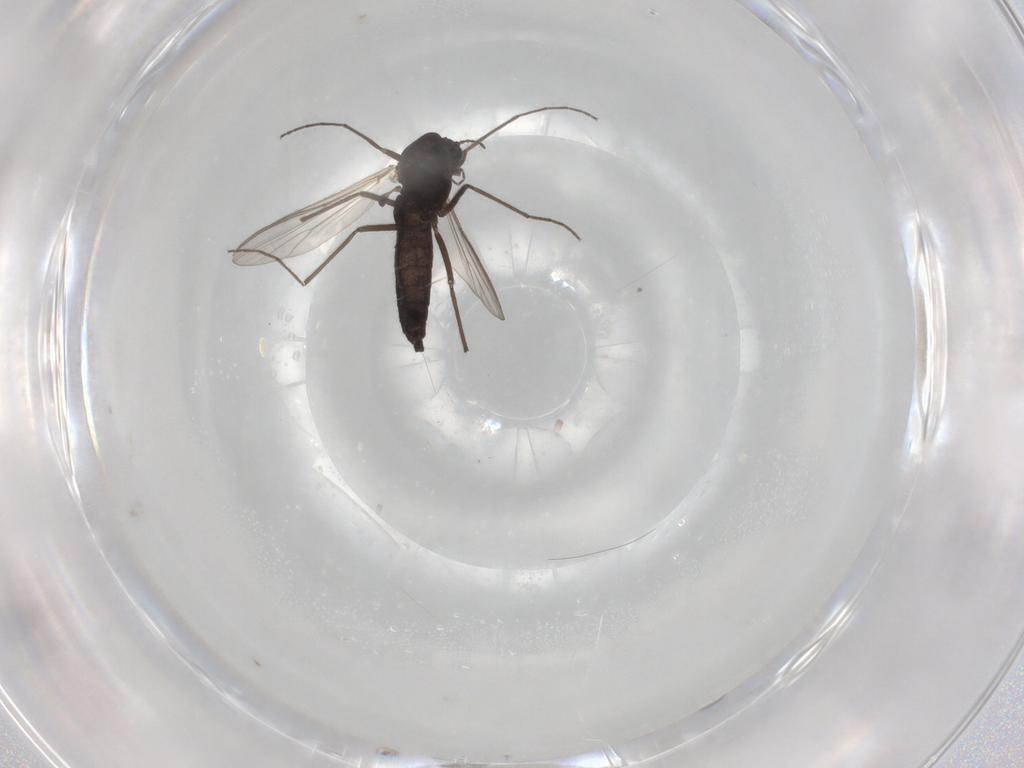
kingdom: Animalia
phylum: Arthropoda
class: Insecta
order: Diptera
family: Chironomidae
